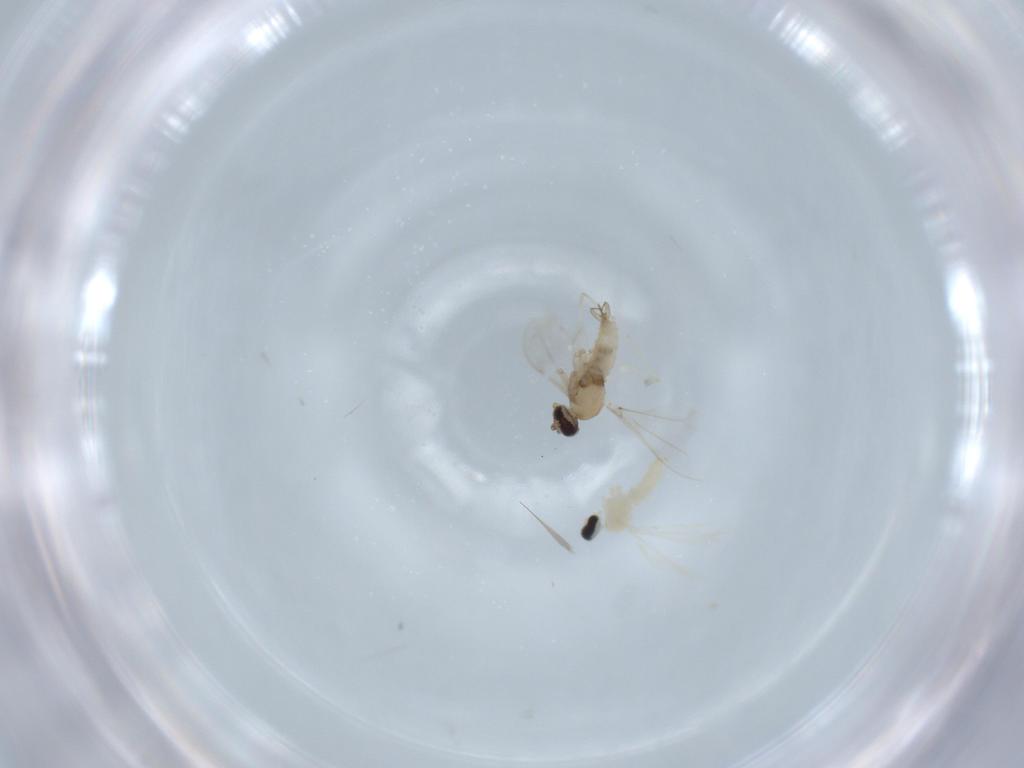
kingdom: Animalia
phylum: Arthropoda
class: Insecta
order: Diptera
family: Cecidomyiidae
